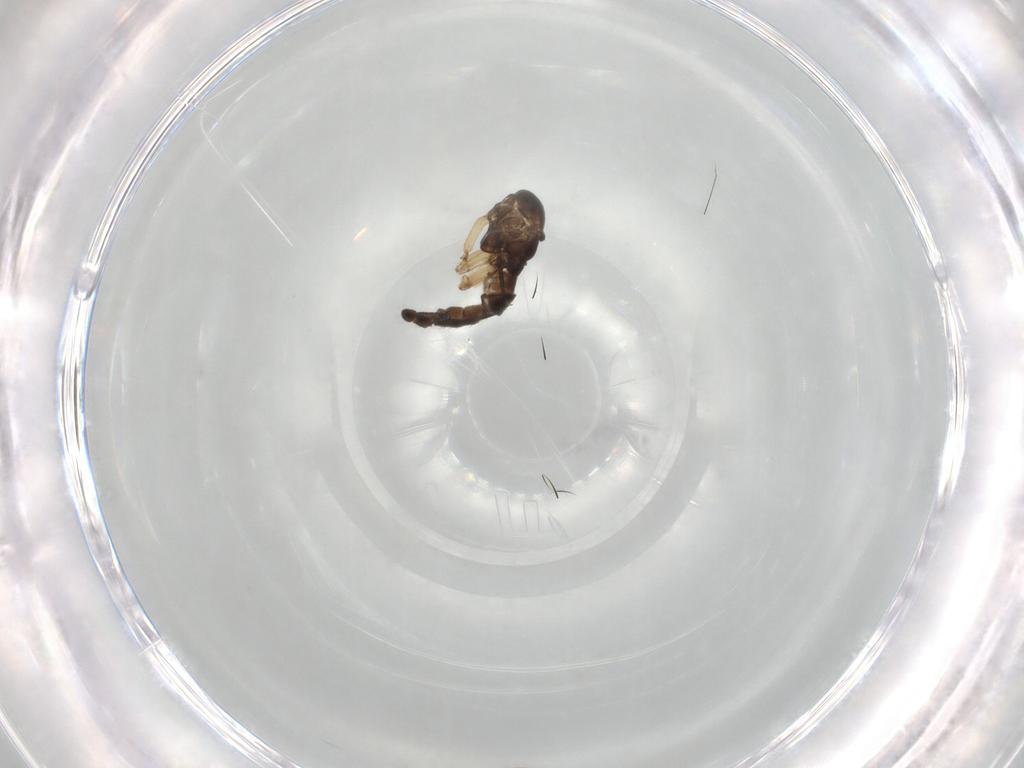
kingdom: Animalia
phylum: Arthropoda
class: Insecta
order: Diptera
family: Sciaridae
